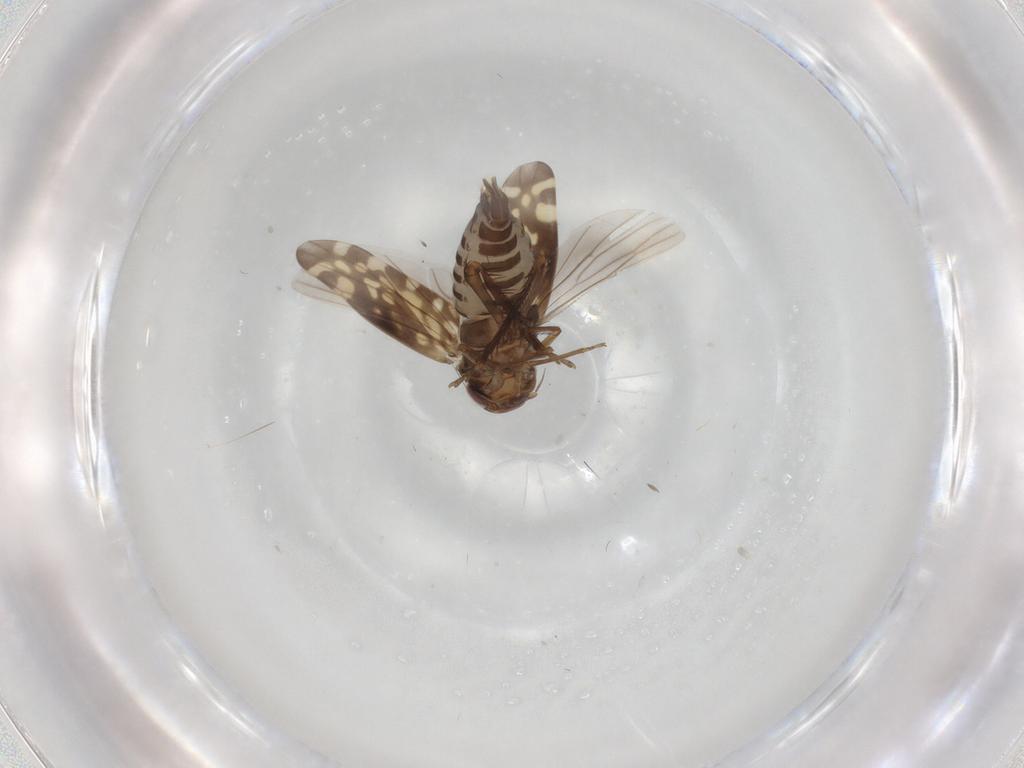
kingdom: Animalia
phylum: Arthropoda
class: Insecta
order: Hemiptera
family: Cicadellidae
